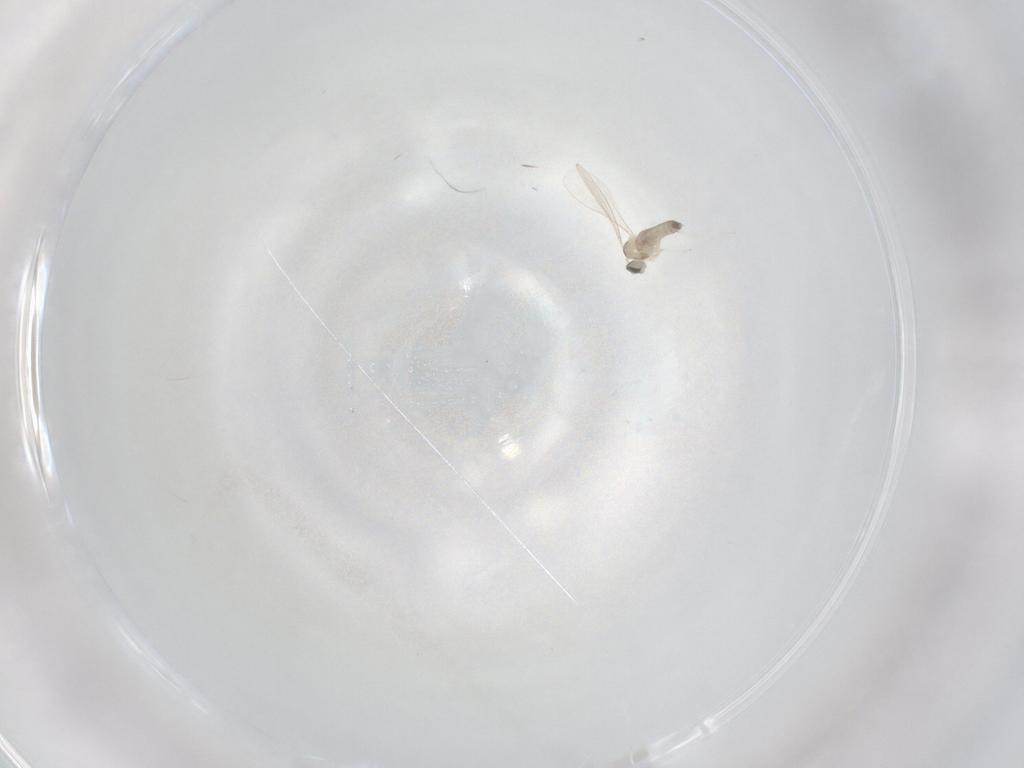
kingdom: Animalia
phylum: Arthropoda
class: Insecta
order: Diptera
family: Cecidomyiidae
